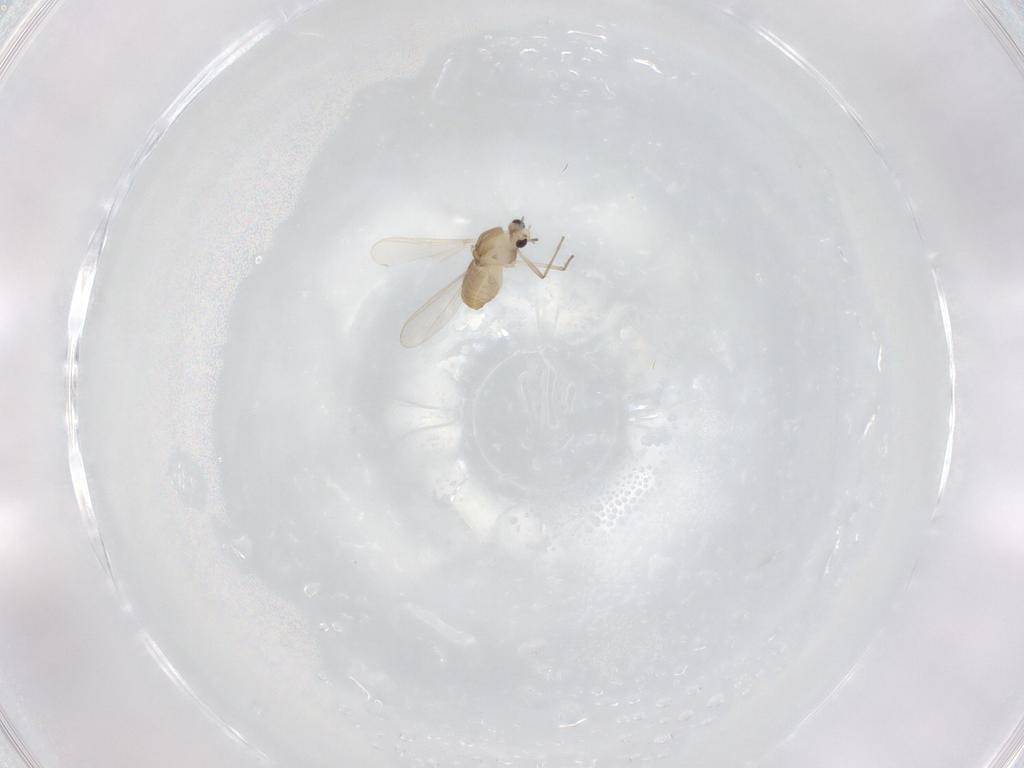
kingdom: Animalia
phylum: Arthropoda
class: Insecta
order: Diptera
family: Chironomidae
